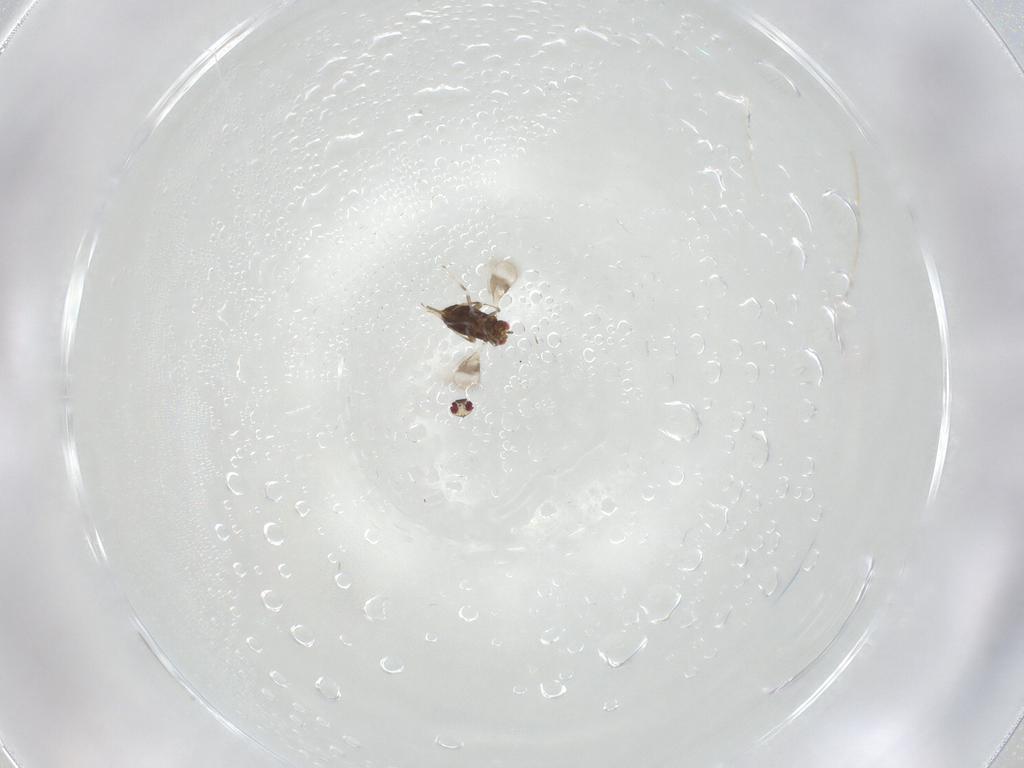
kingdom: Animalia
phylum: Arthropoda
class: Insecta
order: Hymenoptera
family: Azotidae
